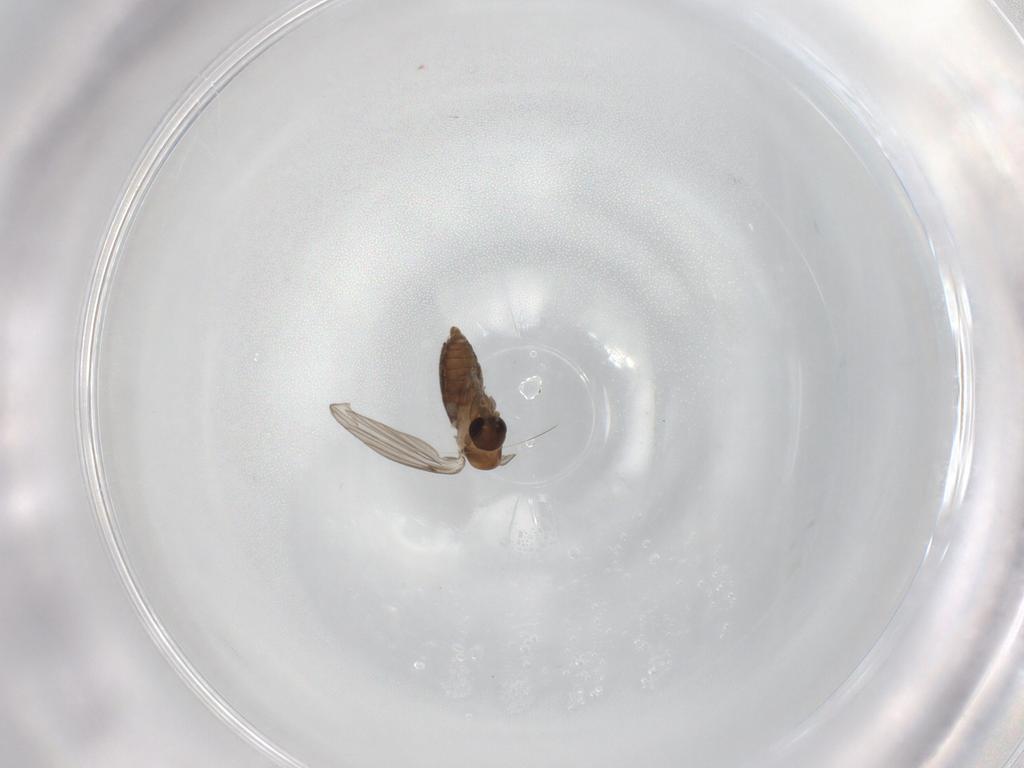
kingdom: Animalia
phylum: Arthropoda
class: Insecta
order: Diptera
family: Psychodidae
